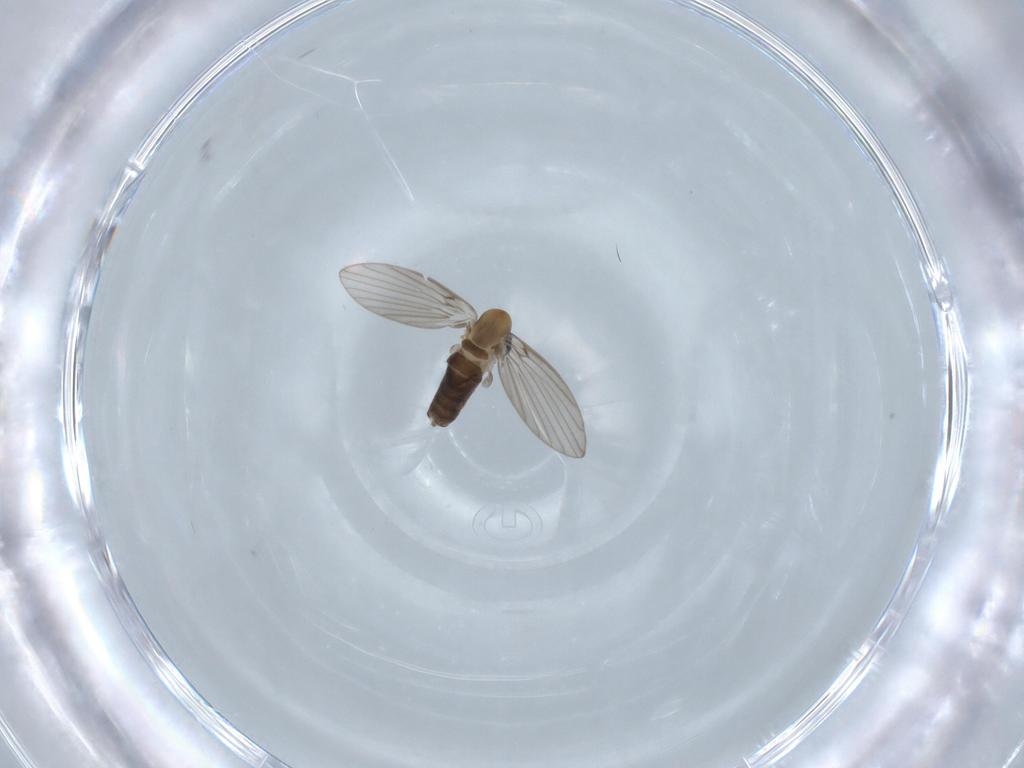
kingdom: Animalia
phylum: Arthropoda
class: Insecta
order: Diptera
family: Psychodidae
